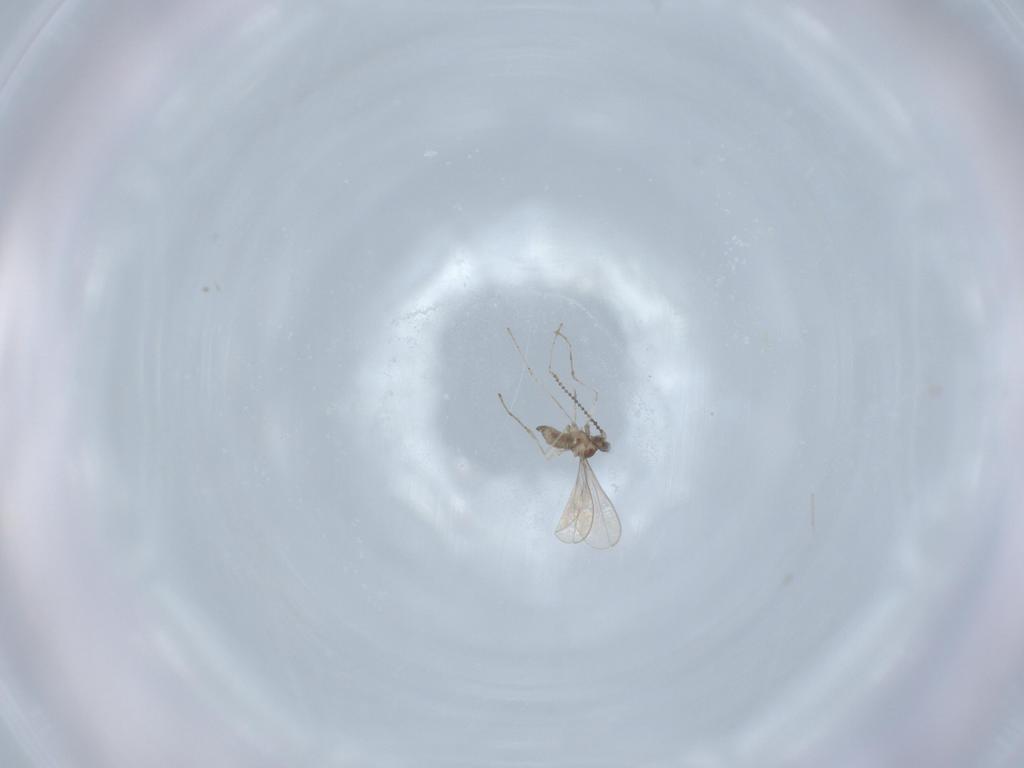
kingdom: Animalia
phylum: Arthropoda
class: Insecta
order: Diptera
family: Cecidomyiidae
